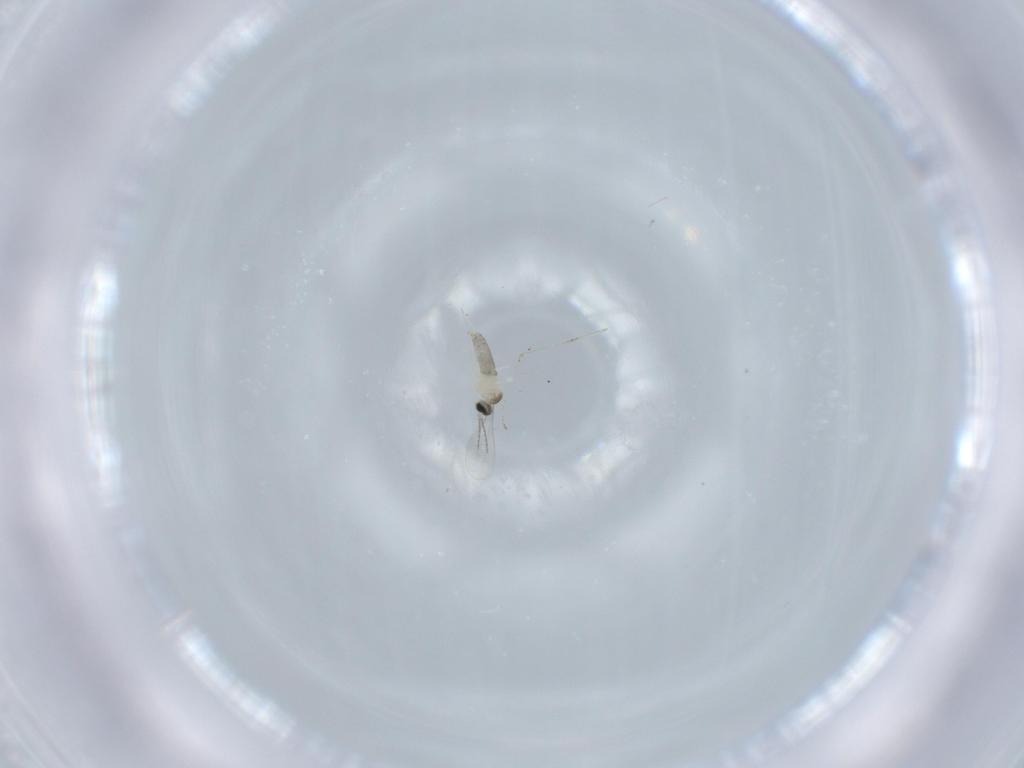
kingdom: Animalia
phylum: Arthropoda
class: Insecta
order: Diptera
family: Cecidomyiidae
